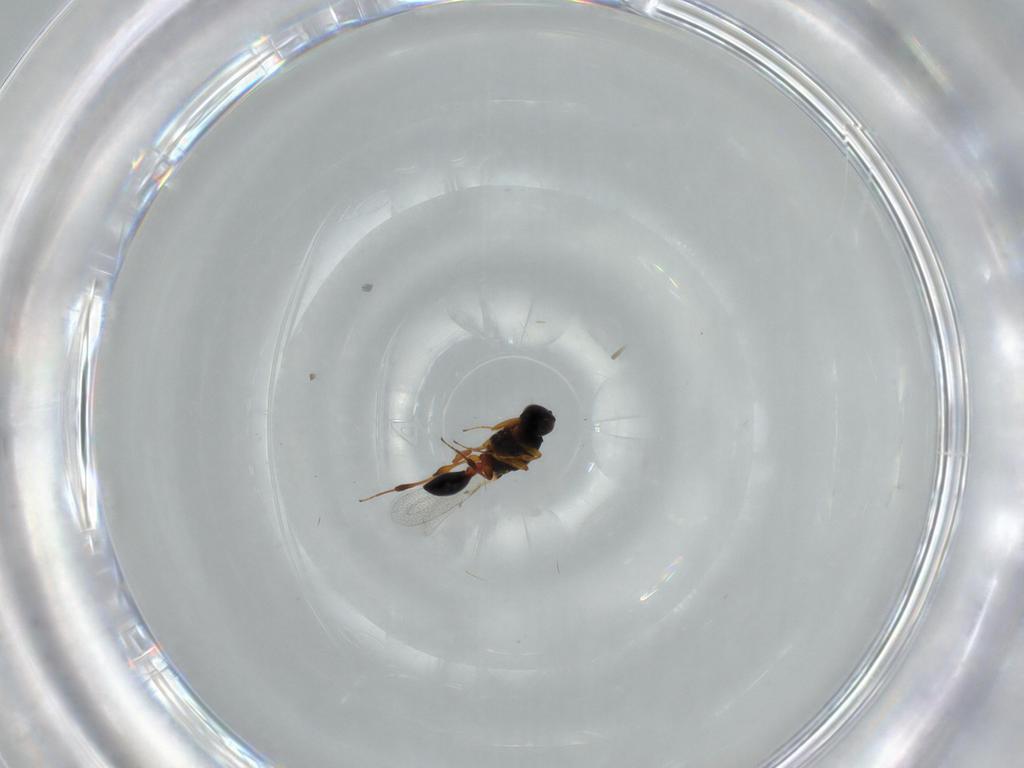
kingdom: Animalia
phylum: Arthropoda
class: Insecta
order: Hymenoptera
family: Platygastridae
